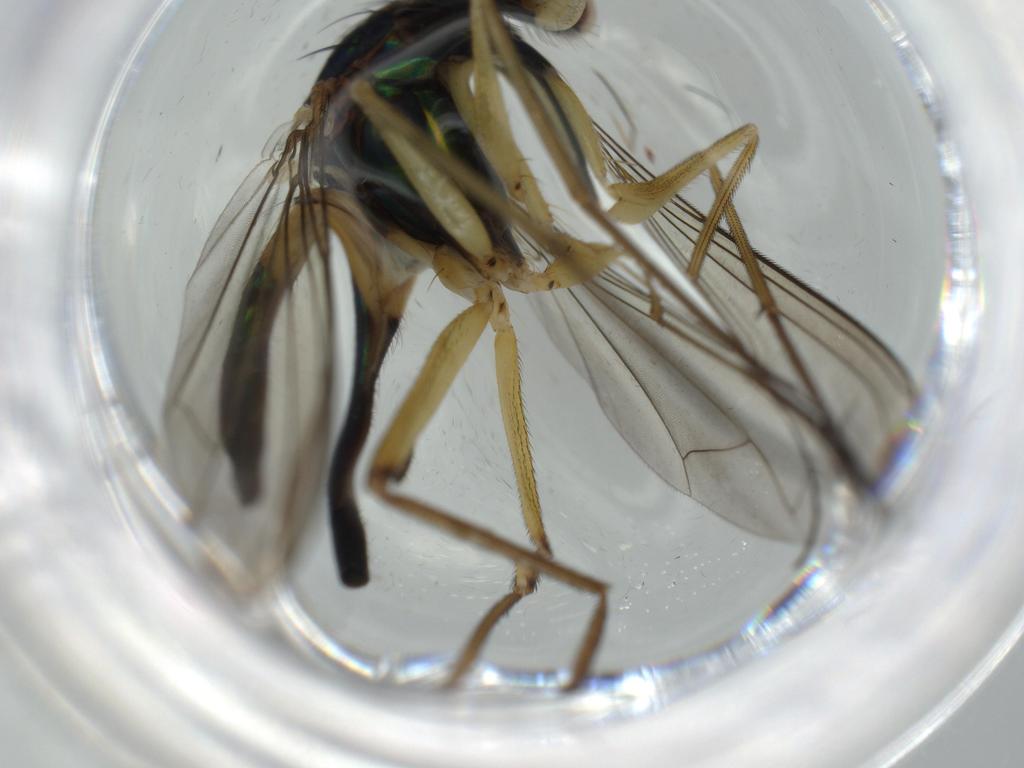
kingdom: Animalia
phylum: Arthropoda
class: Insecta
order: Diptera
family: Dolichopodidae
